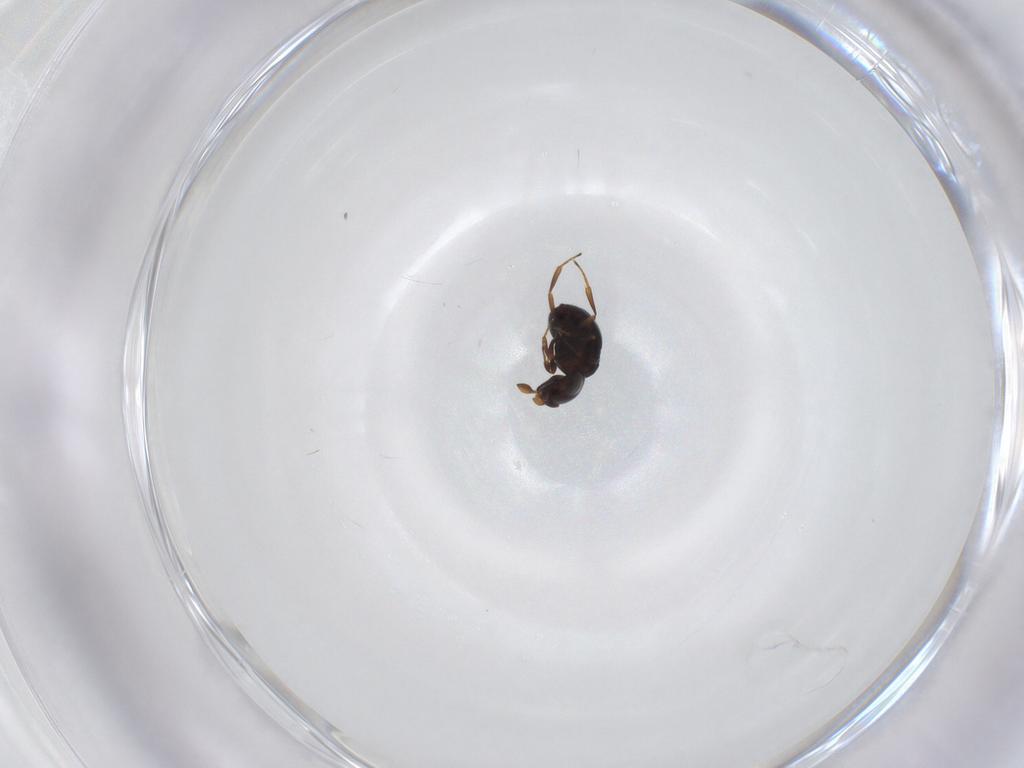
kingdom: Animalia
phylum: Arthropoda
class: Insecta
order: Hymenoptera
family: Scelionidae
